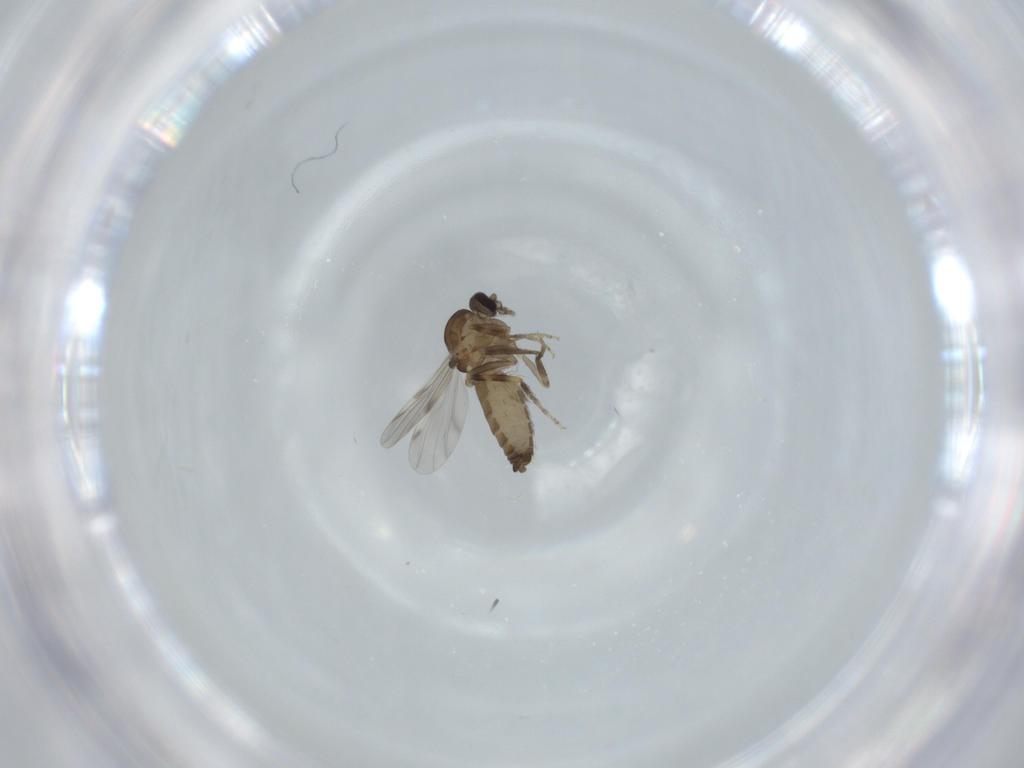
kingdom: Animalia
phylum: Arthropoda
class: Insecta
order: Diptera
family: Ceratopogonidae
